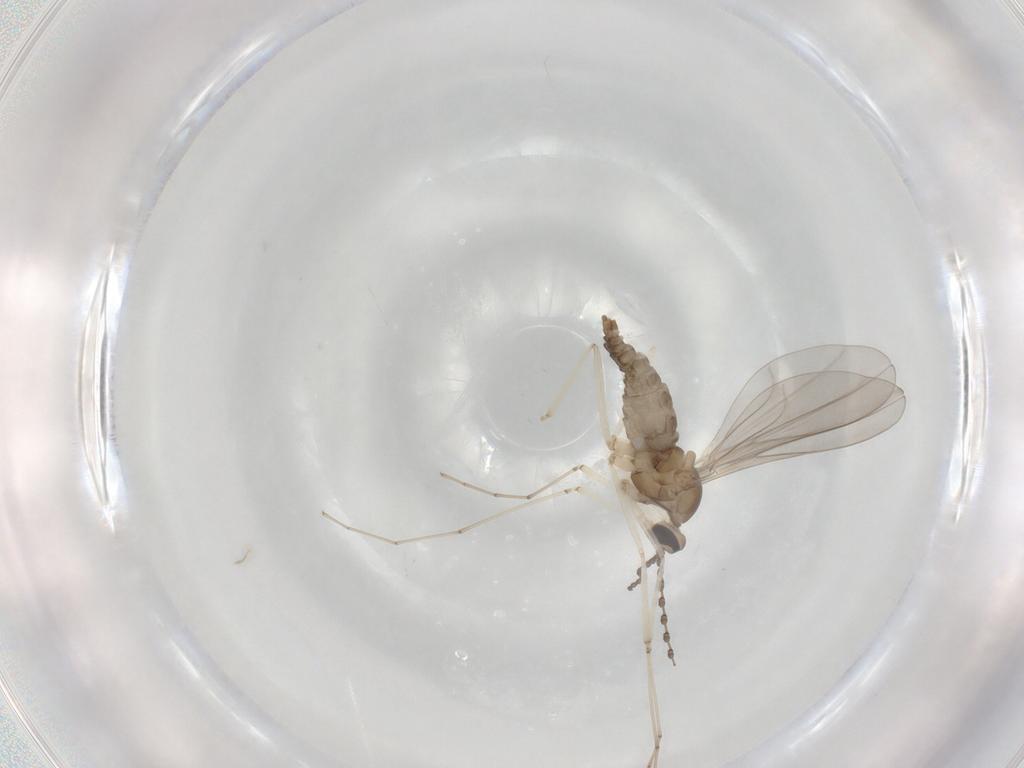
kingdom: Animalia
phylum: Arthropoda
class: Insecta
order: Diptera
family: Cecidomyiidae
